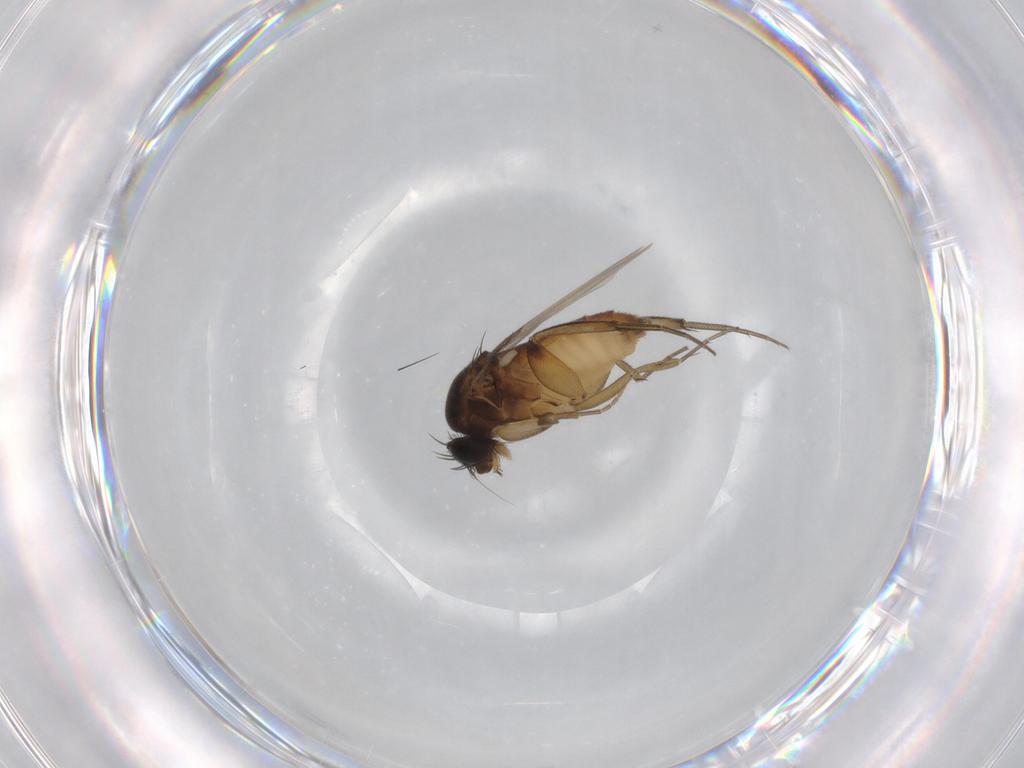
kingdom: Animalia
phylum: Arthropoda
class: Insecta
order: Diptera
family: Phoridae
